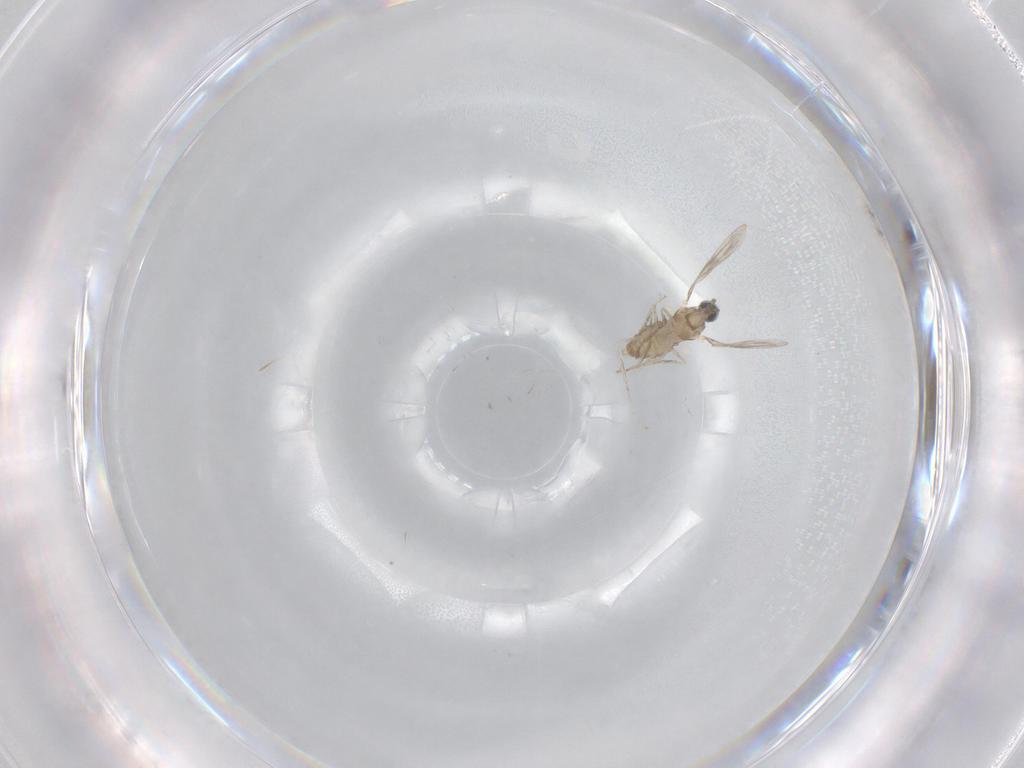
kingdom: Animalia
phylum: Arthropoda
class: Insecta
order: Diptera
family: Cecidomyiidae
